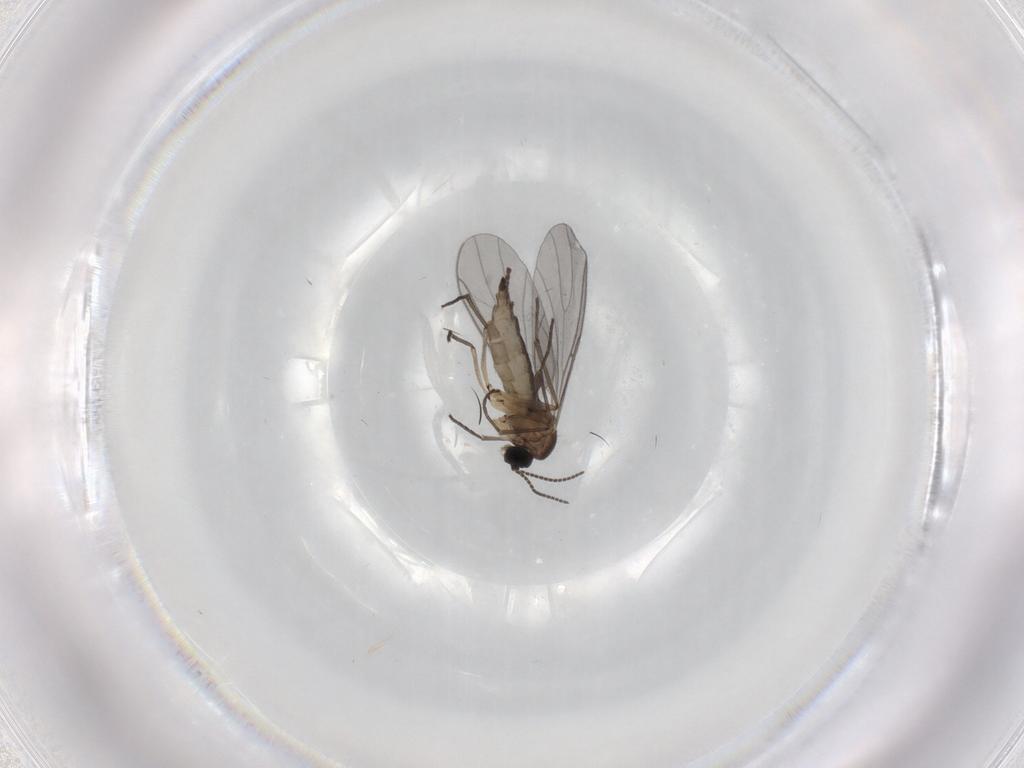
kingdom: Animalia
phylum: Arthropoda
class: Insecta
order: Diptera
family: Sciaridae
